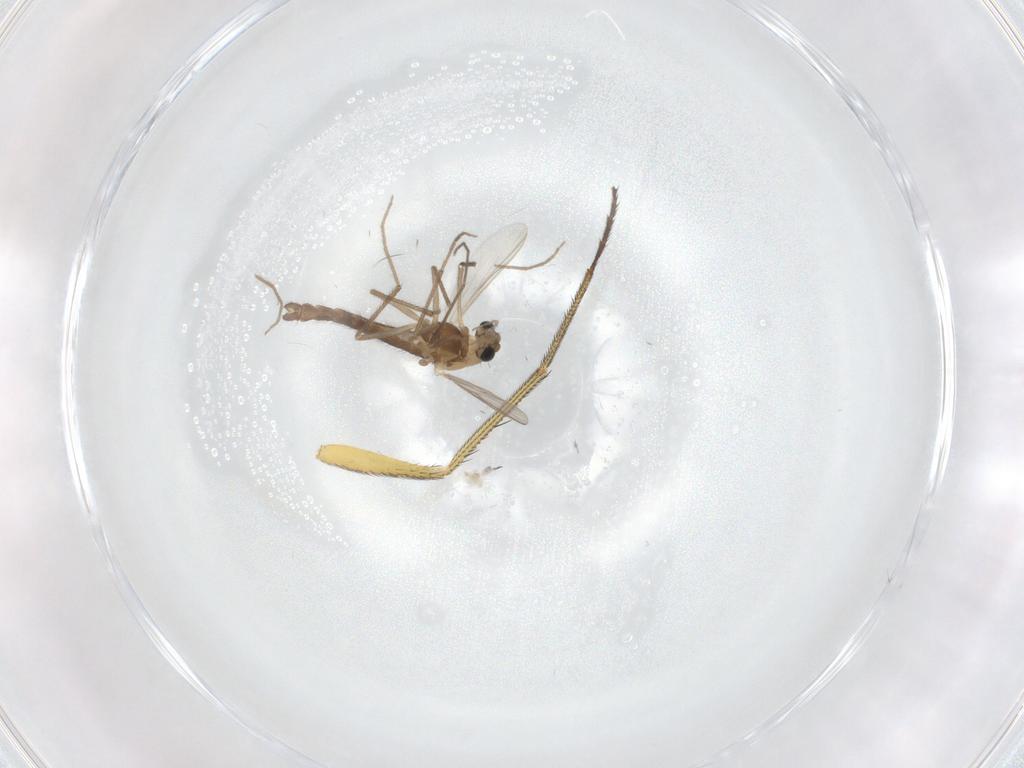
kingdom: Animalia
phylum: Arthropoda
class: Insecta
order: Diptera
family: Dolichopodidae
